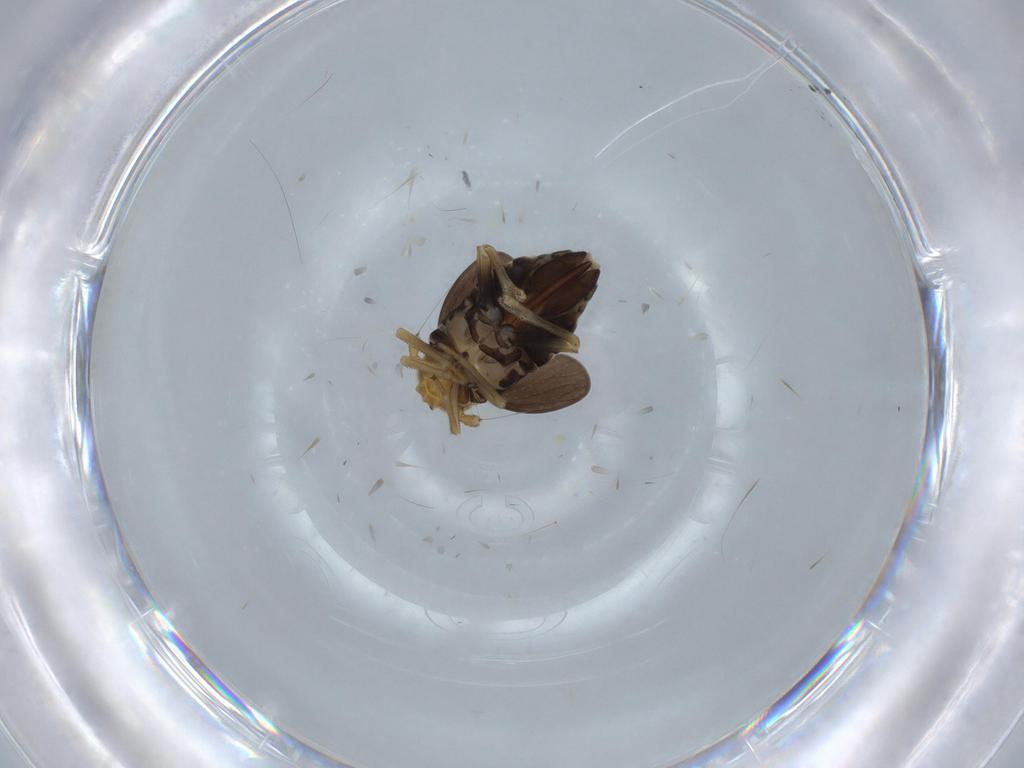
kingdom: Animalia
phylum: Arthropoda
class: Insecta
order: Hemiptera
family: Delphacidae
